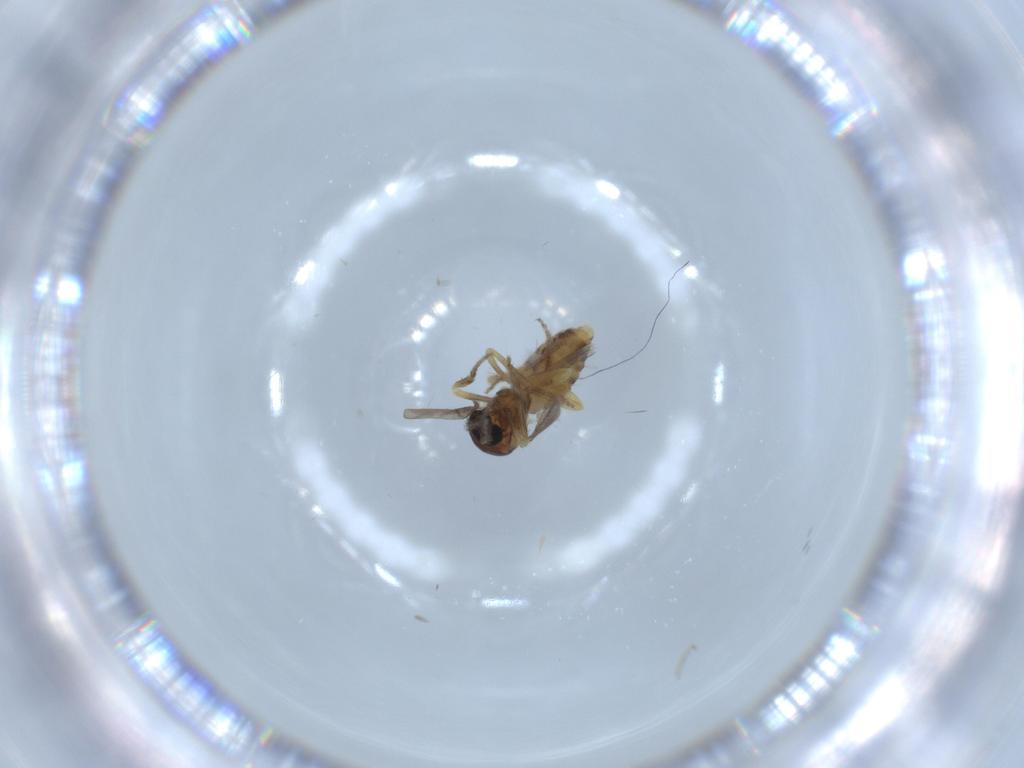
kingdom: Animalia
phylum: Arthropoda
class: Insecta
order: Diptera
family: Ceratopogonidae
